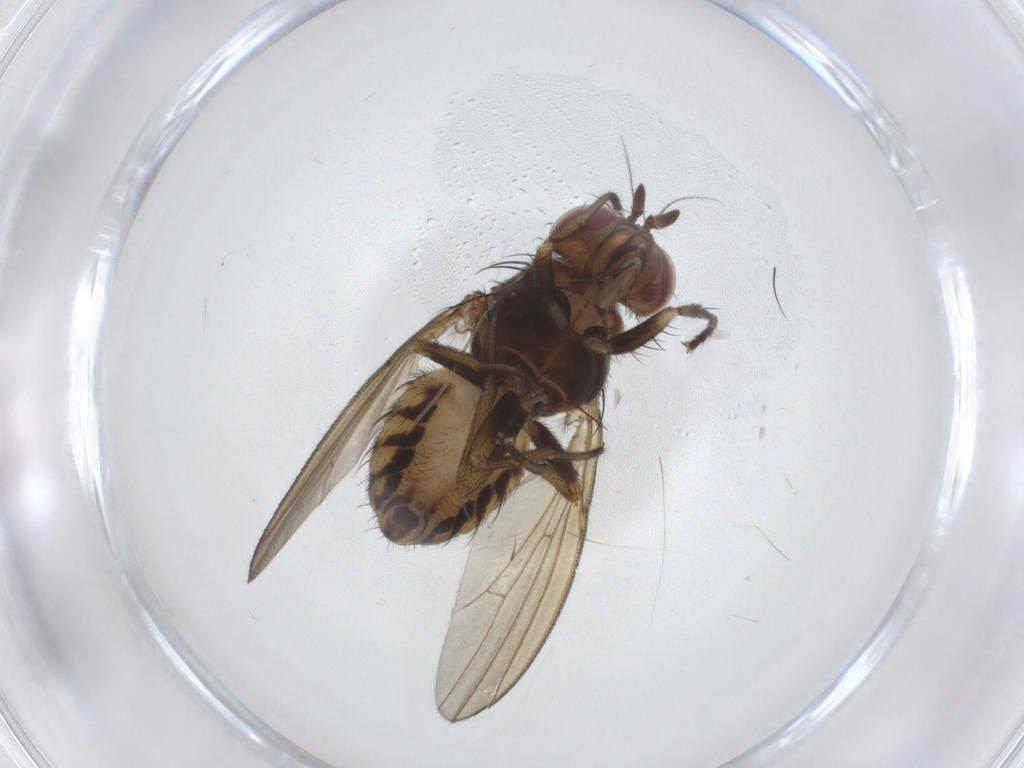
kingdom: Animalia
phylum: Arthropoda
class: Insecta
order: Diptera
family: Chironomidae
